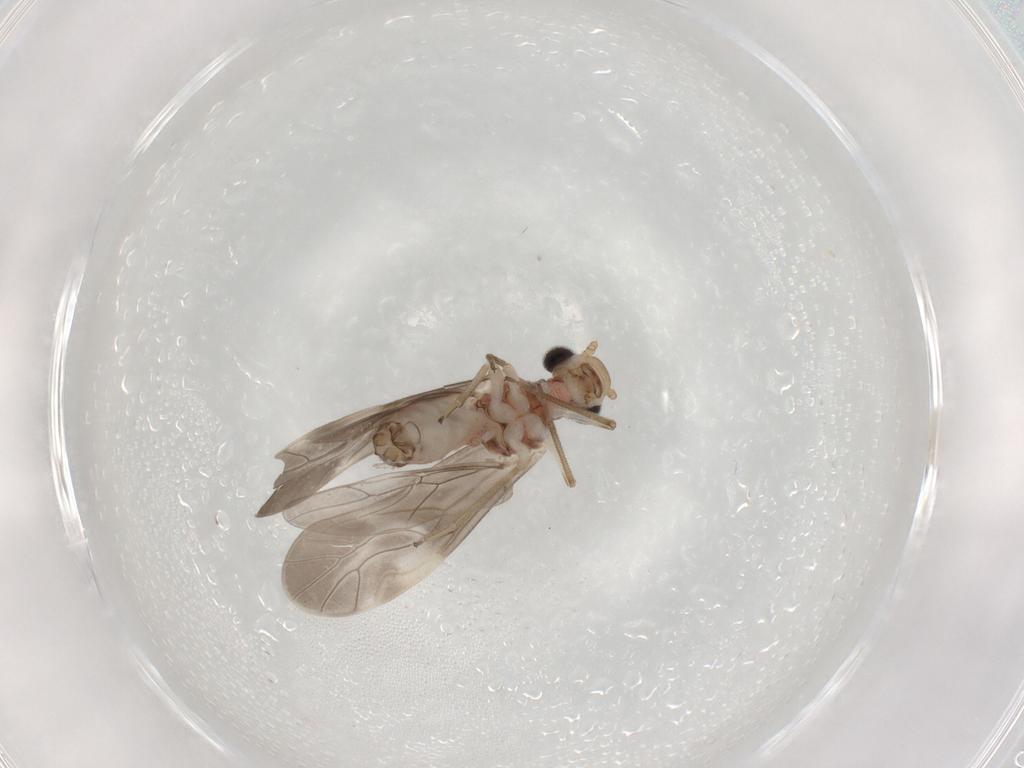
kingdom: Animalia
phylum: Arthropoda
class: Insecta
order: Psocodea
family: Caeciliusidae
